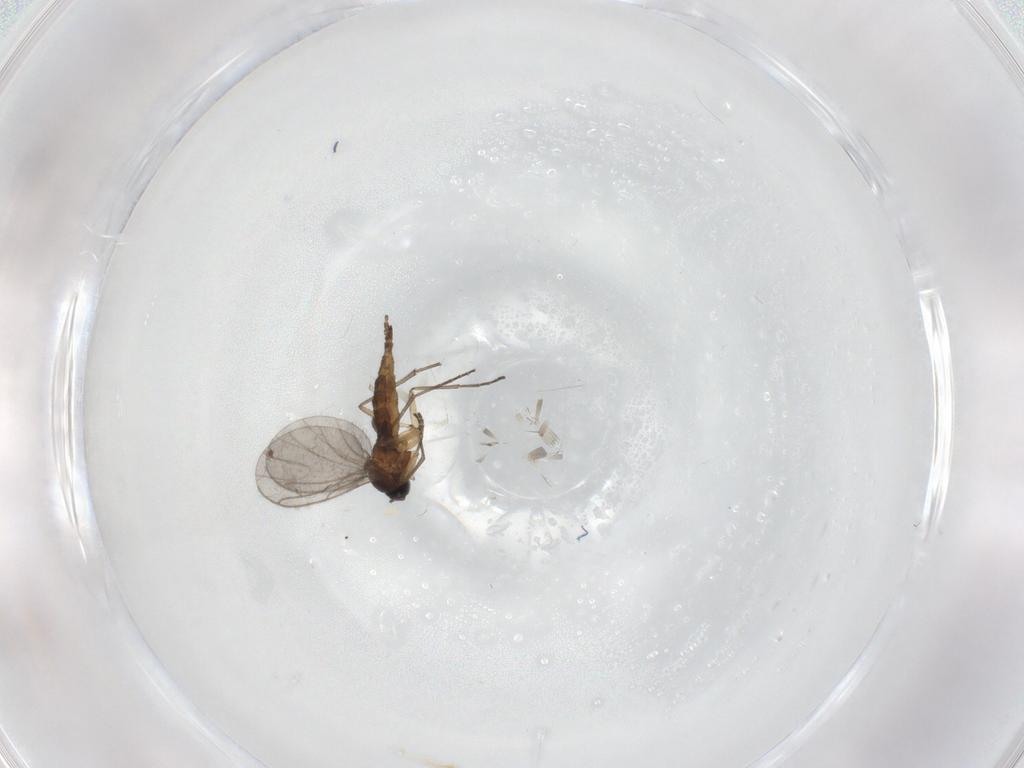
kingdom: Animalia
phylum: Arthropoda
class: Insecta
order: Diptera
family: Sciaridae
